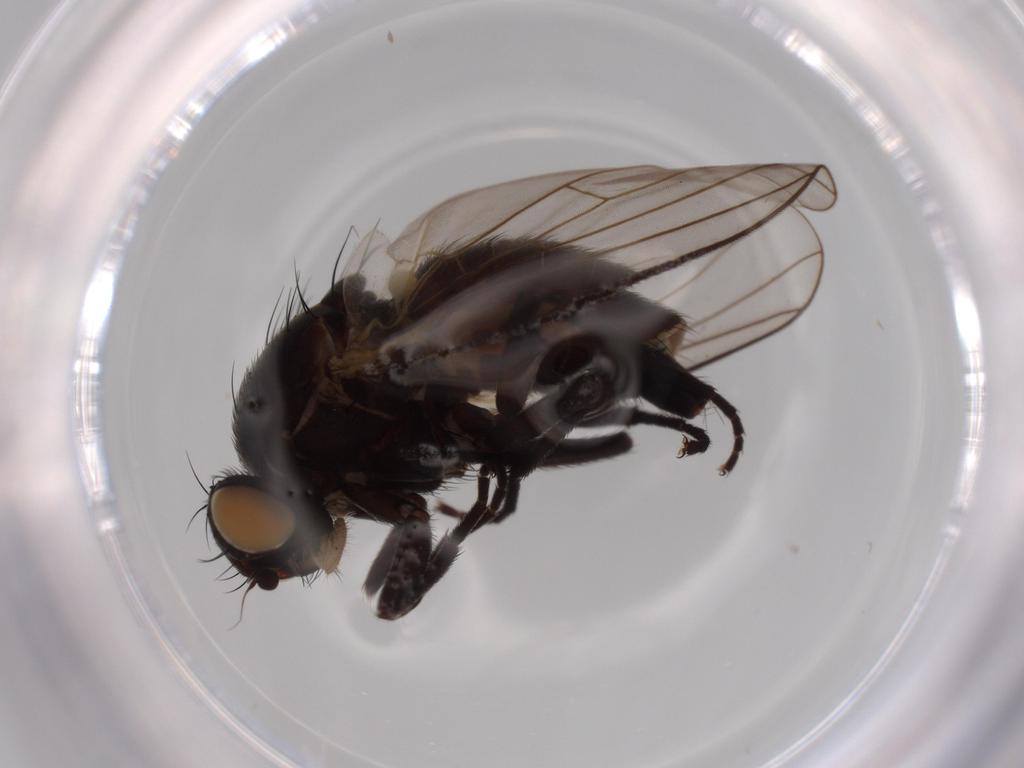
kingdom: Animalia
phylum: Arthropoda
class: Insecta
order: Diptera
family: Agromyzidae
